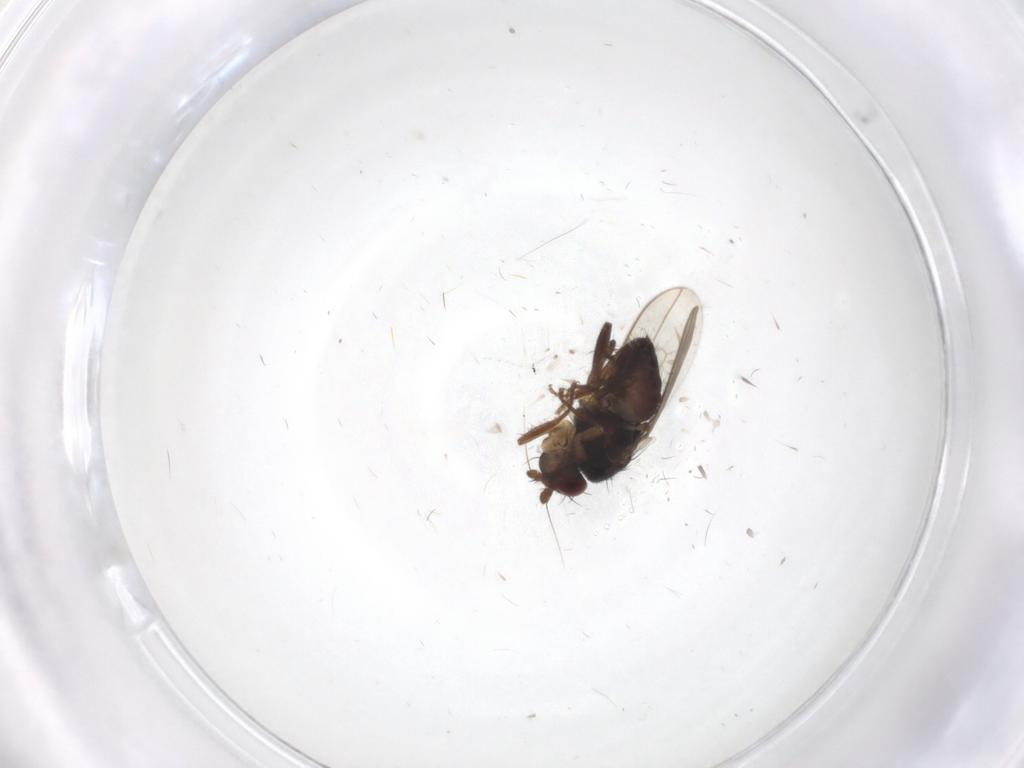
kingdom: Animalia
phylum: Arthropoda
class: Insecta
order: Diptera
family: Sphaeroceridae
